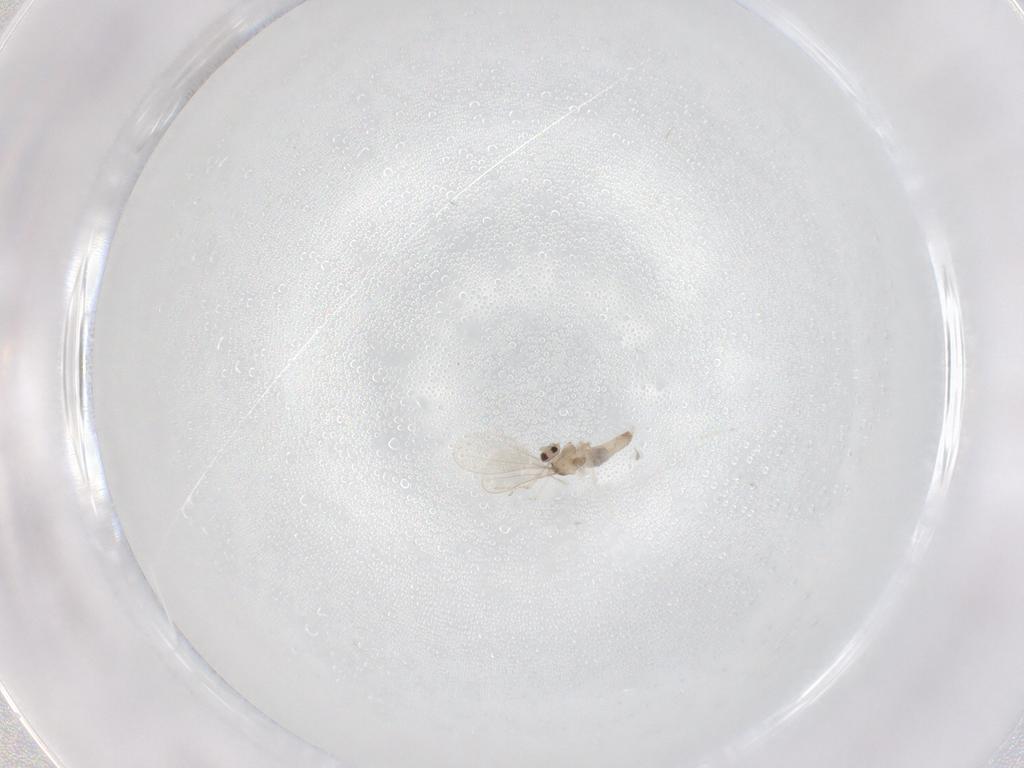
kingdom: Animalia
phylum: Arthropoda
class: Insecta
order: Diptera
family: Cecidomyiidae
